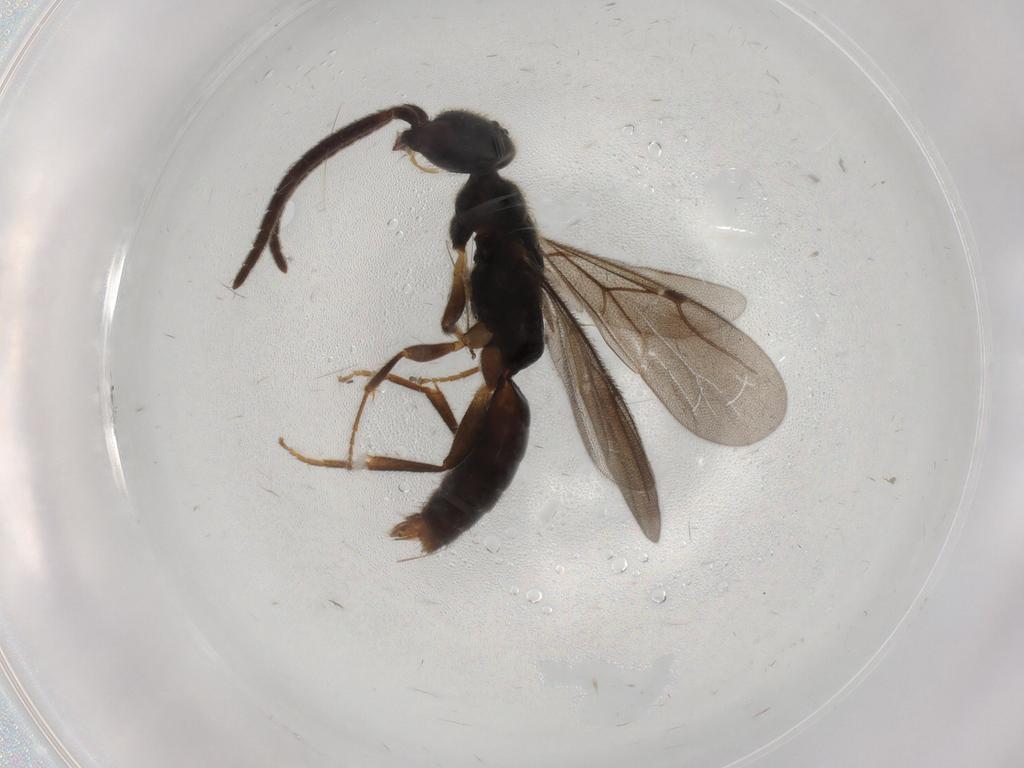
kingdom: Animalia
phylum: Arthropoda
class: Insecta
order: Hymenoptera
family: Bethylidae
